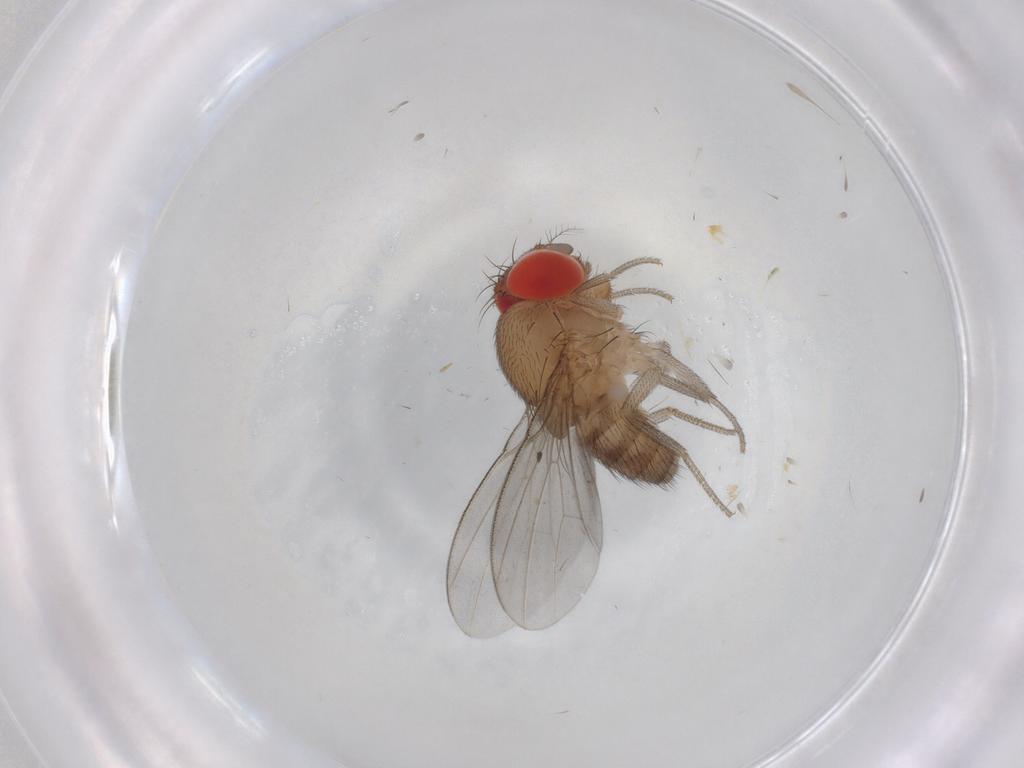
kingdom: Animalia
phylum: Arthropoda
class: Insecta
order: Diptera
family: Drosophilidae
